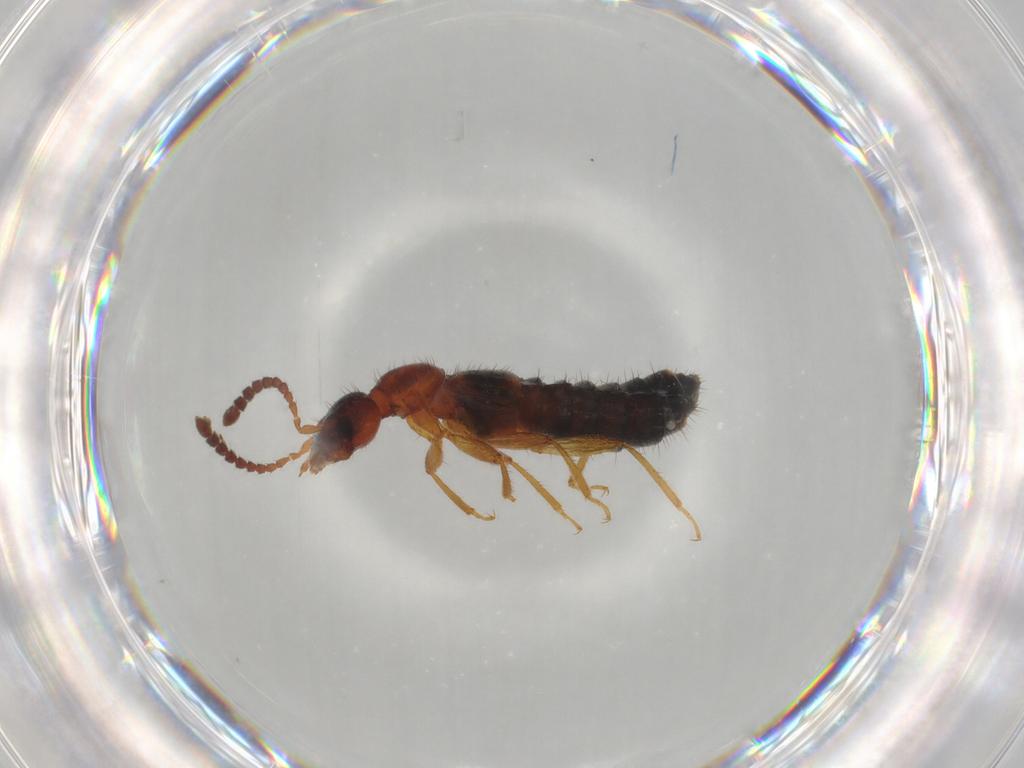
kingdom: Animalia
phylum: Arthropoda
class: Insecta
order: Coleoptera
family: Staphylinidae
